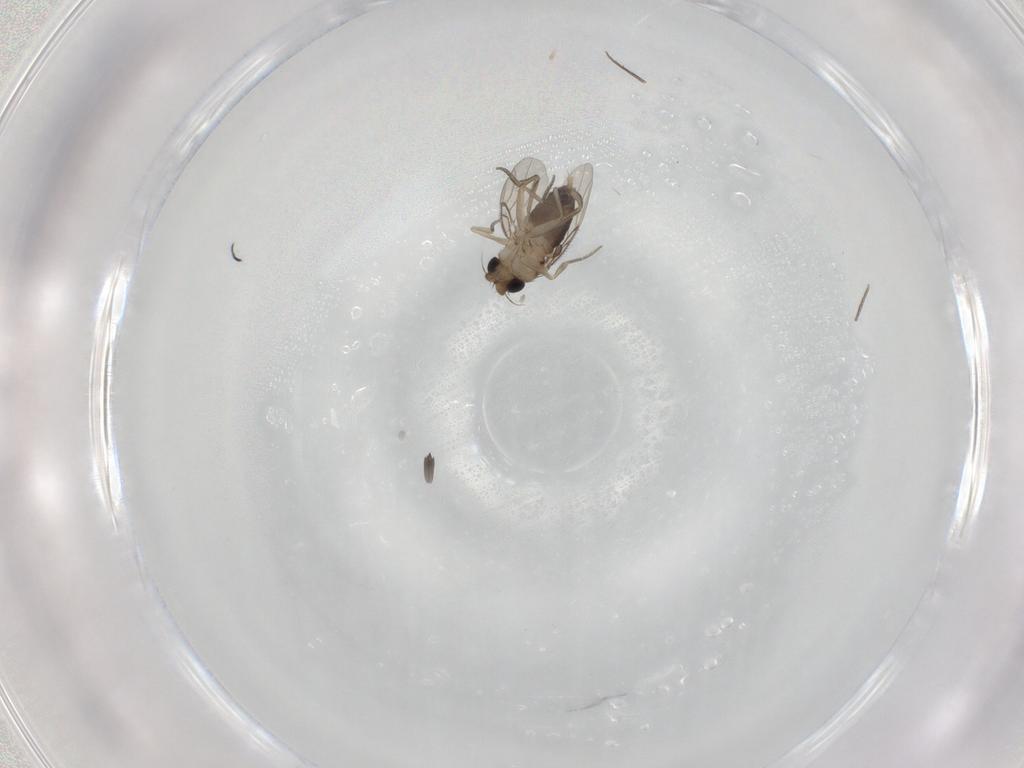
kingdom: Animalia
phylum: Arthropoda
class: Insecta
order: Diptera
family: Phoridae
